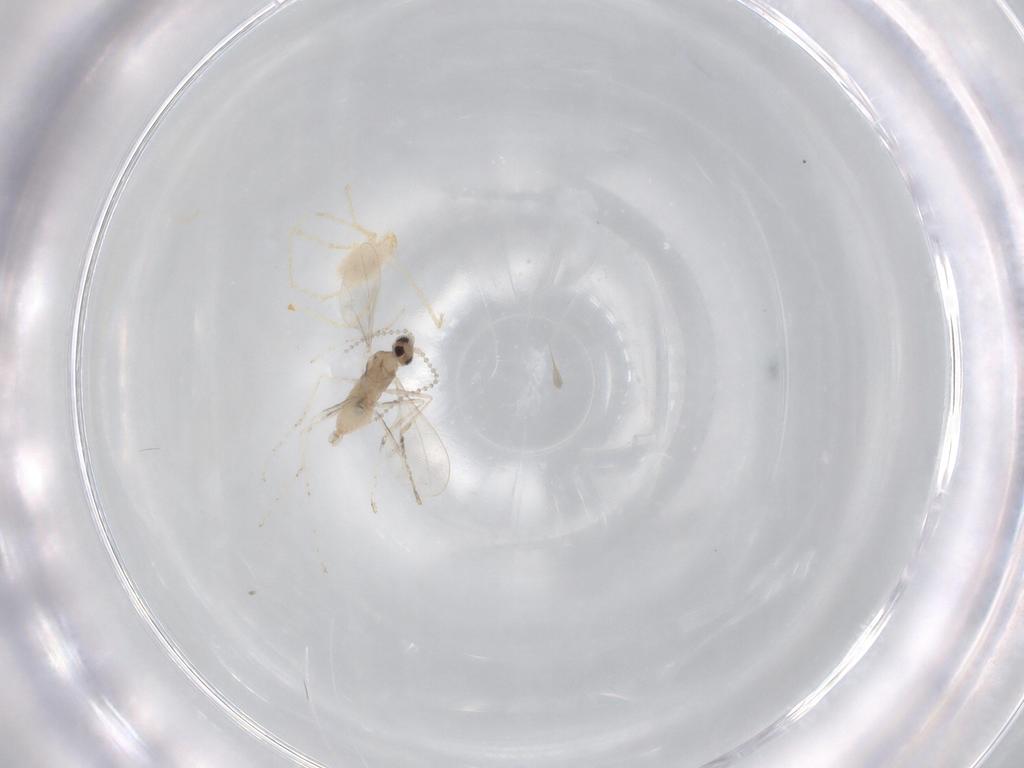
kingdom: Animalia
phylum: Arthropoda
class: Arachnida
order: Trombidiformes
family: Erythraeidae
